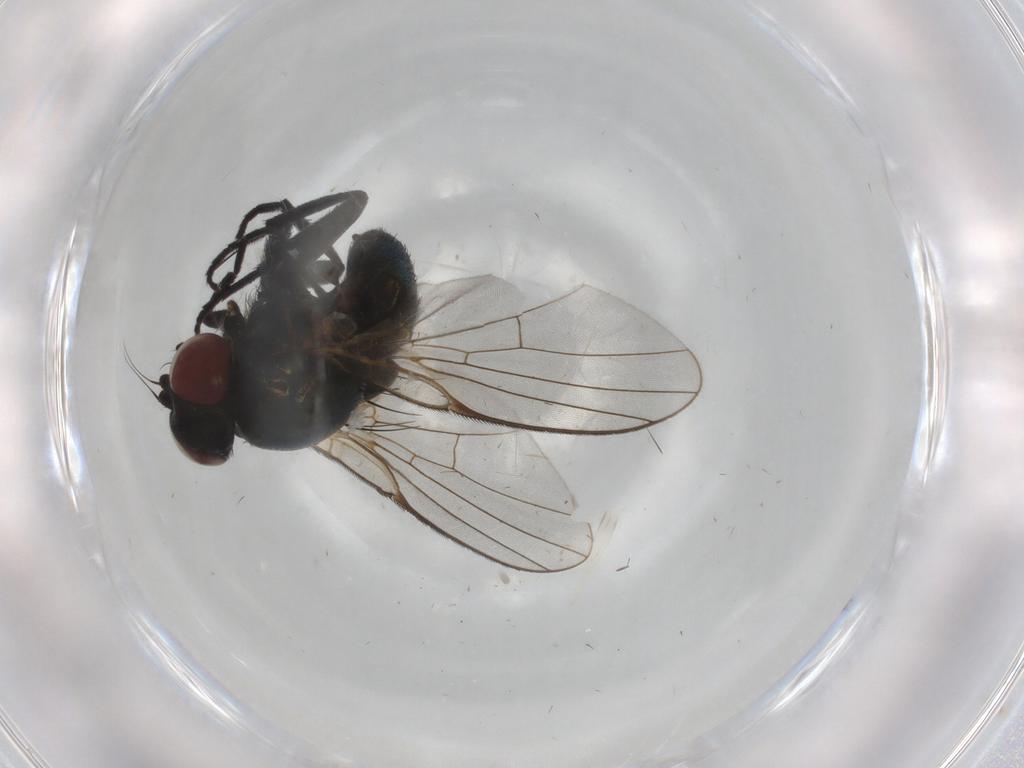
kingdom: Animalia
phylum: Arthropoda
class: Insecta
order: Diptera
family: Agromyzidae
